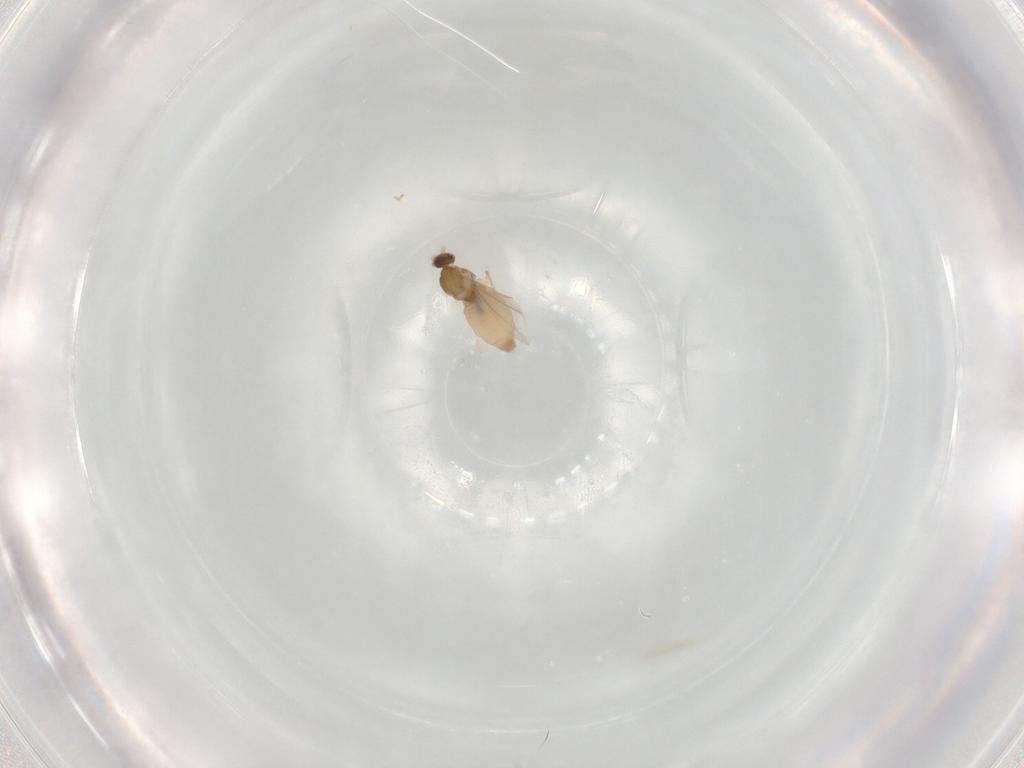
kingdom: Animalia
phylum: Arthropoda
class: Insecta
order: Diptera
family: Cecidomyiidae
